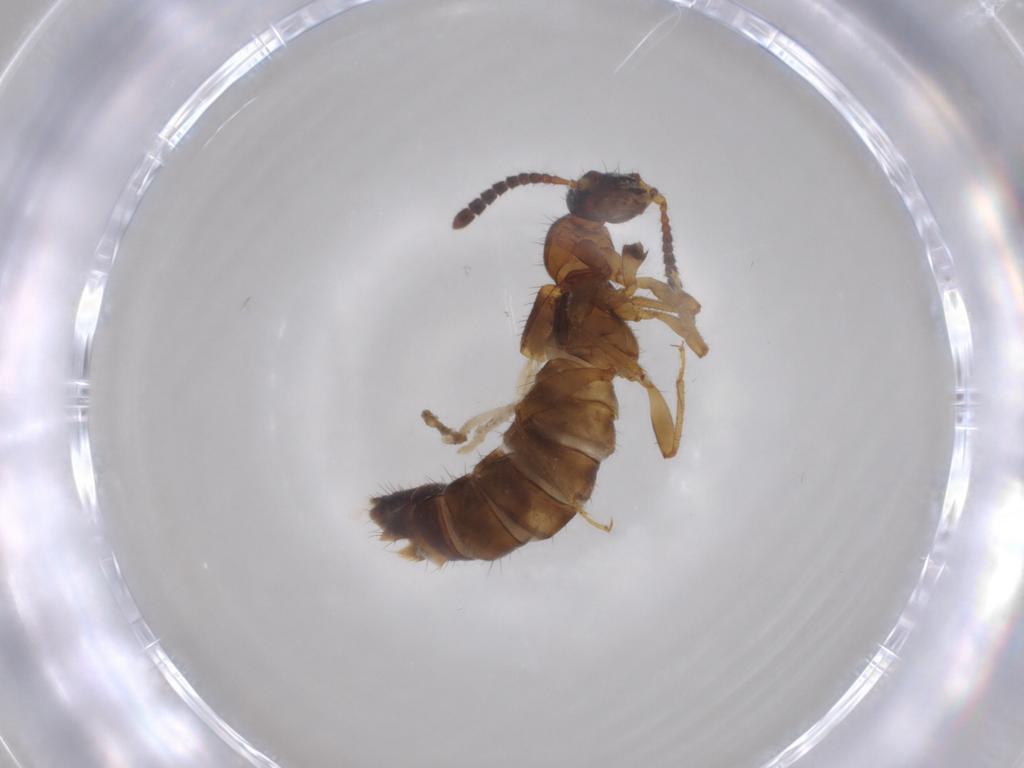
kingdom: Animalia
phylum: Arthropoda
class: Insecta
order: Coleoptera
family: Staphylinidae
